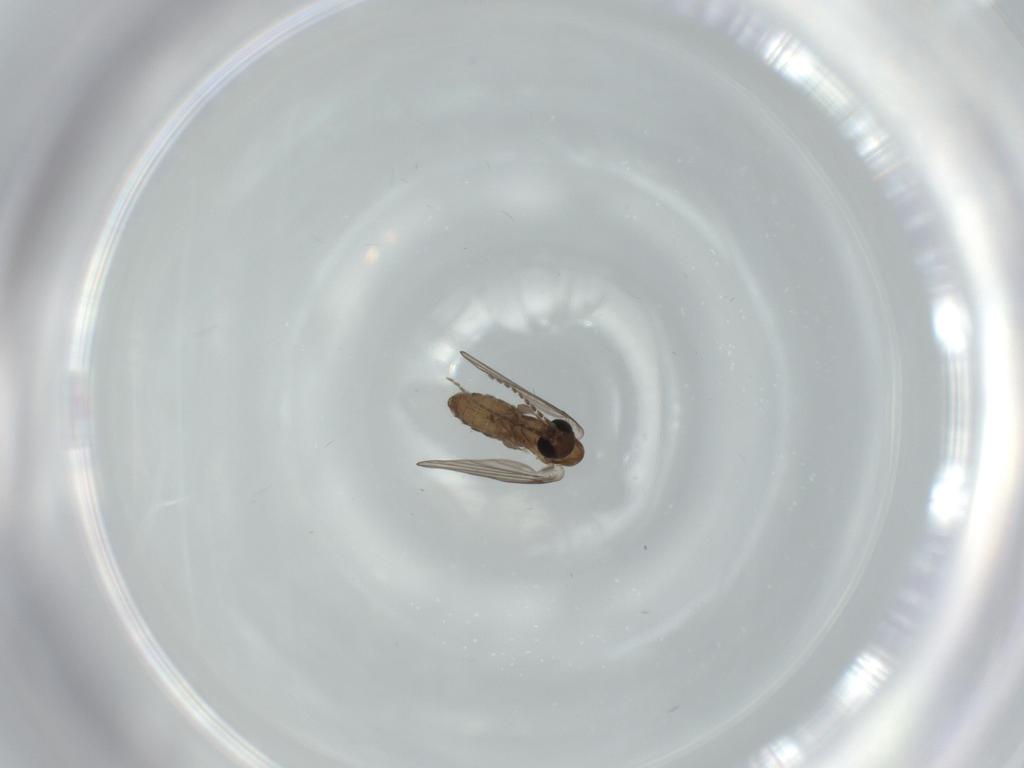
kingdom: Animalia
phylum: Arthropoda
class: Insecta
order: Diptera
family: Psychodidae
